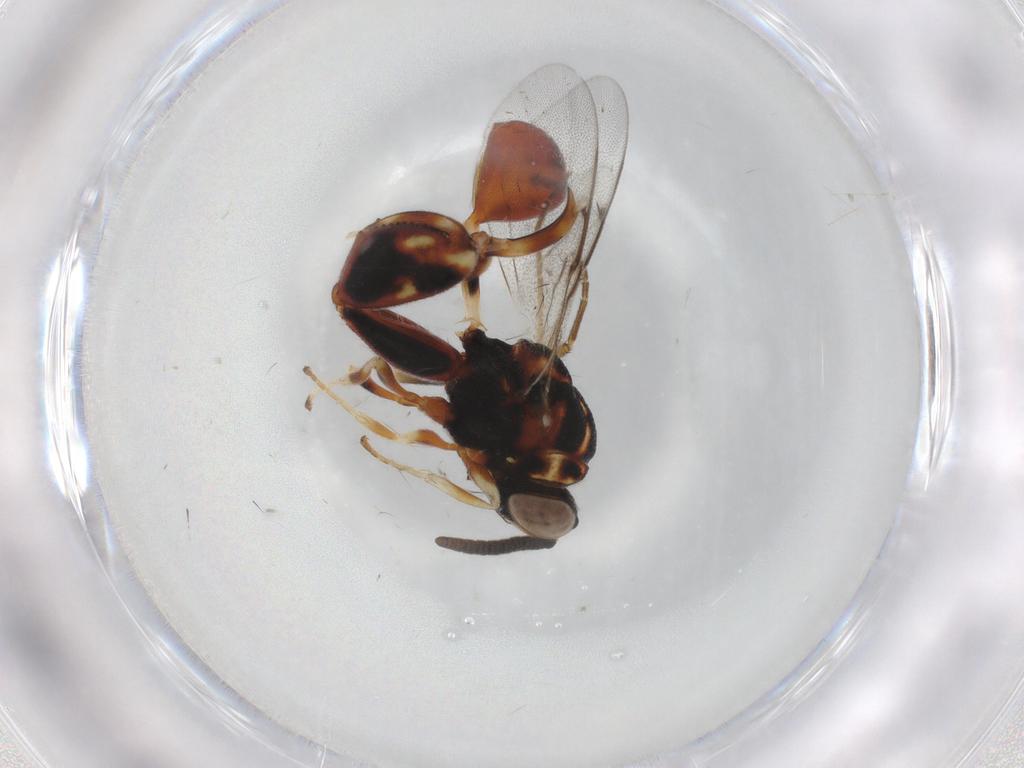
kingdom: Animalia
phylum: Arthropoda
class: Insecta
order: Hymenoptera
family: Chalcididae
